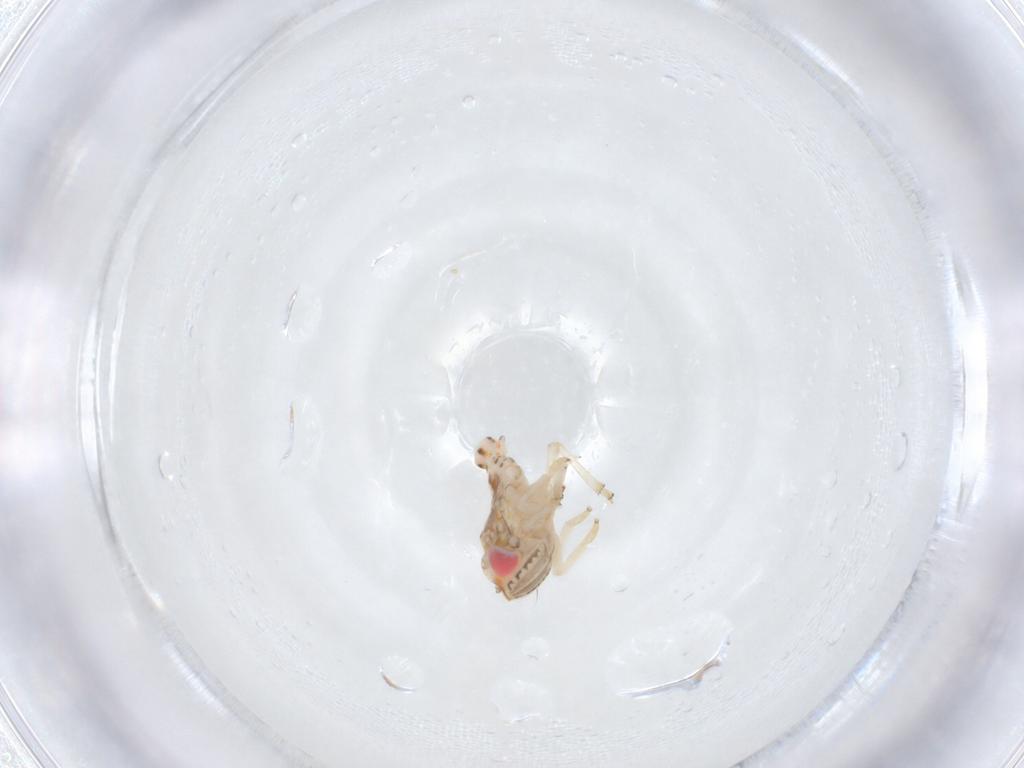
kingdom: Animalia
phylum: Arthropoda
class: Insecta
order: Hemiptera
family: Nogodinidae
